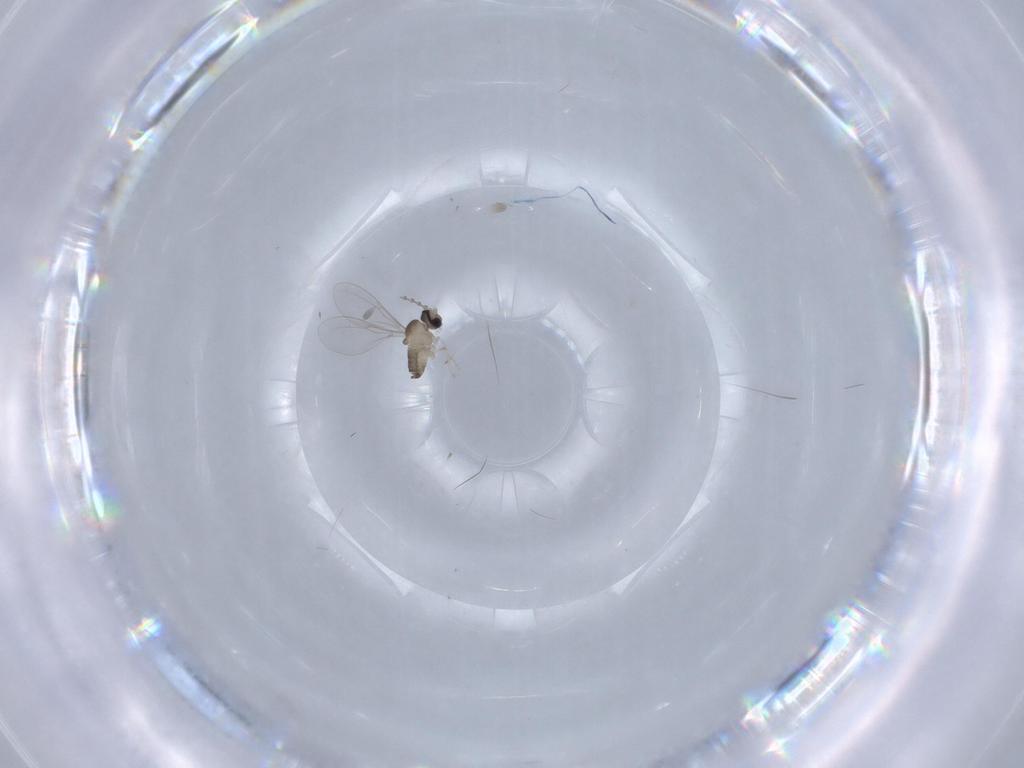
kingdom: Animalia
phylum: Arthropoda
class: Insecta
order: Diptera
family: Cecidomyiidae
